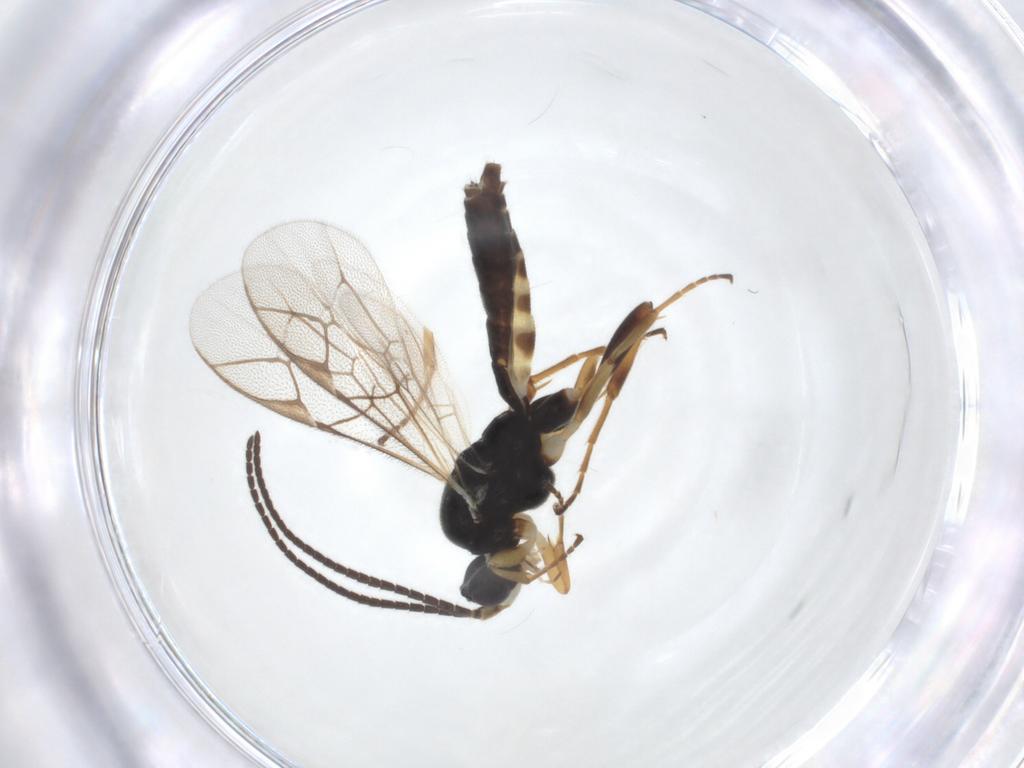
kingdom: Animalia
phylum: Arthropoda
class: Insecta
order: Hymenoptera
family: Ichneumonidae
